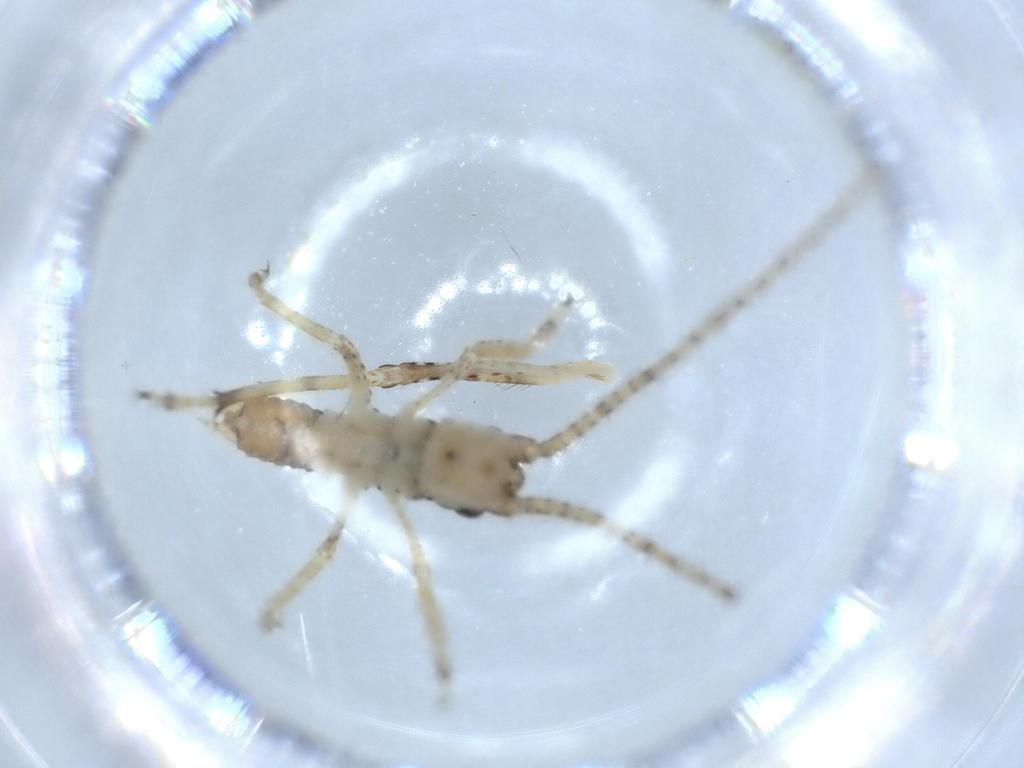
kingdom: Animalia
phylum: Arthropoda
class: Insecta
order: Orthoptera
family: Gryllidae
